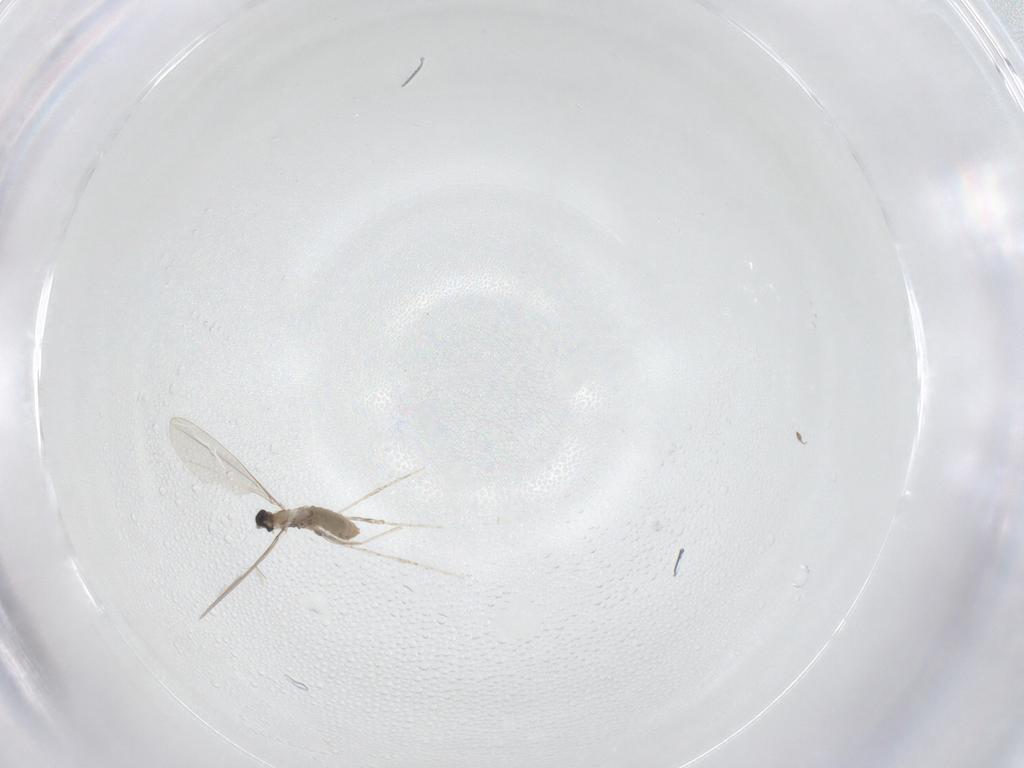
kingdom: Animalia
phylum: Arthropoda
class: Insecta
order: Diptera
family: Cecidomyiidae
